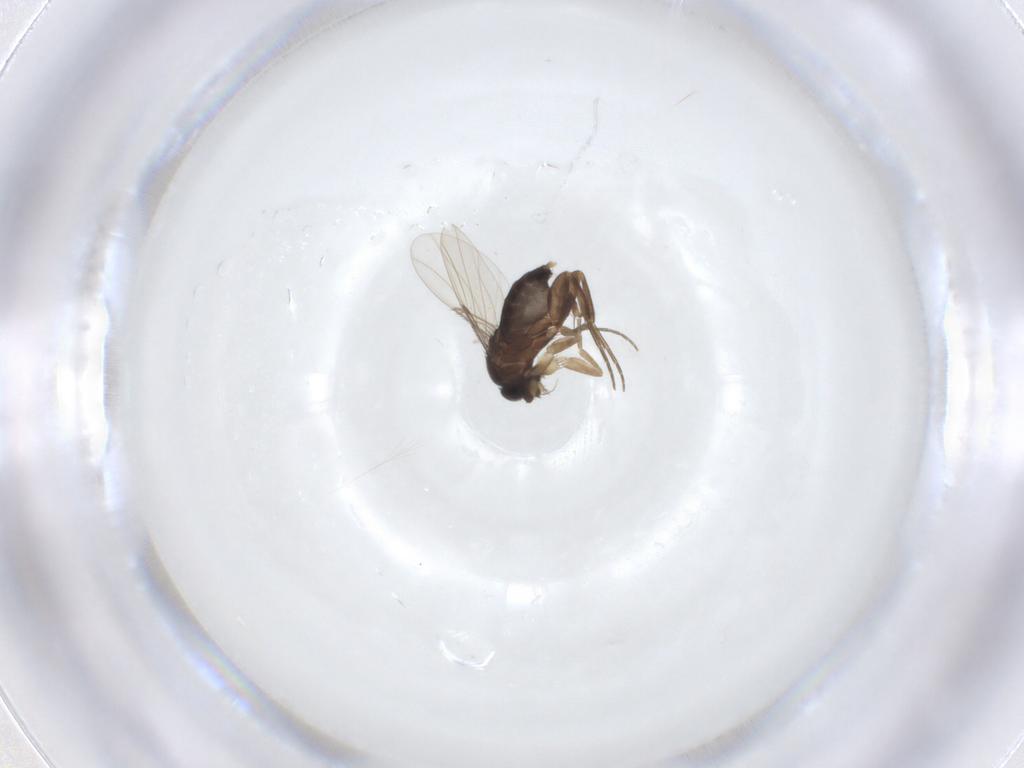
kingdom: Animalia
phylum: Arthropoda
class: Insecta
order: Diptera
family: Phoridae
